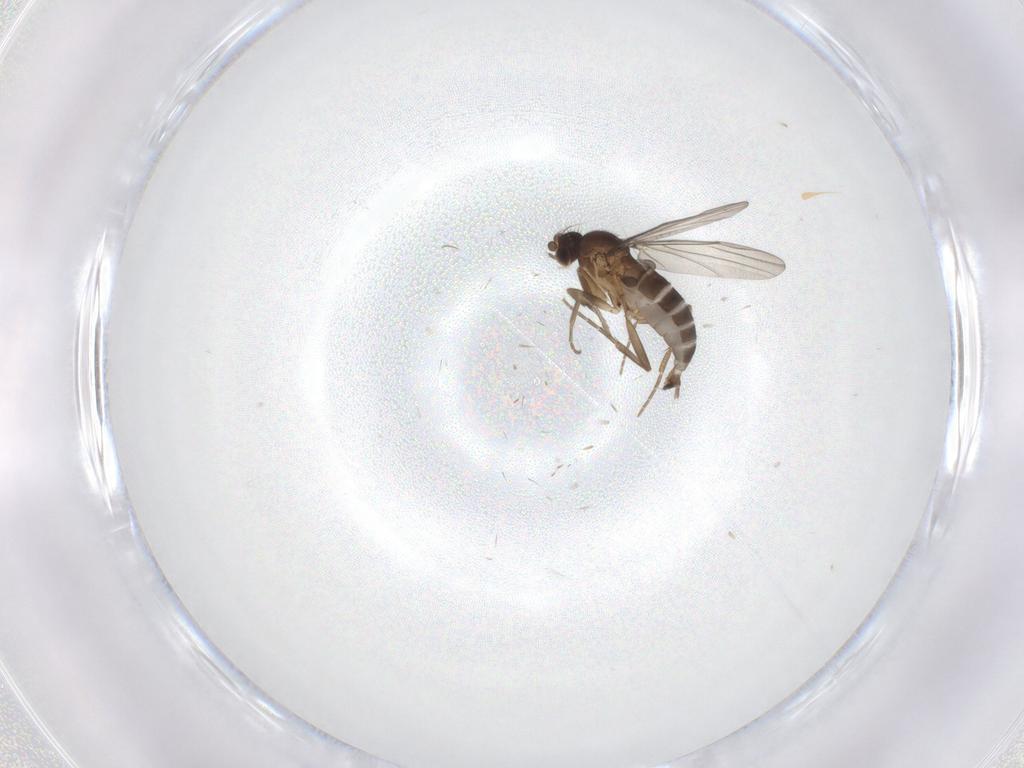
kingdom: Animalia
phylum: Arthropoda
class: Insecta
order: Diptera
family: Phoridae
